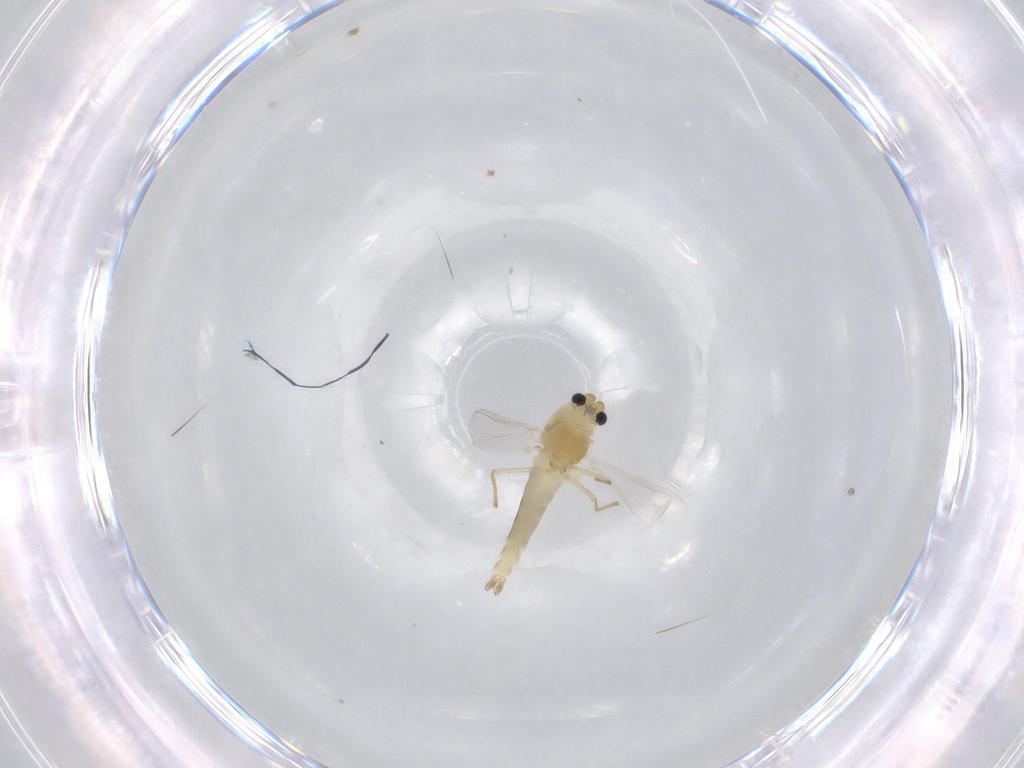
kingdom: Animalia
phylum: Arthropoda
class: Insecta
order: Diptera
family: Chironomidae
